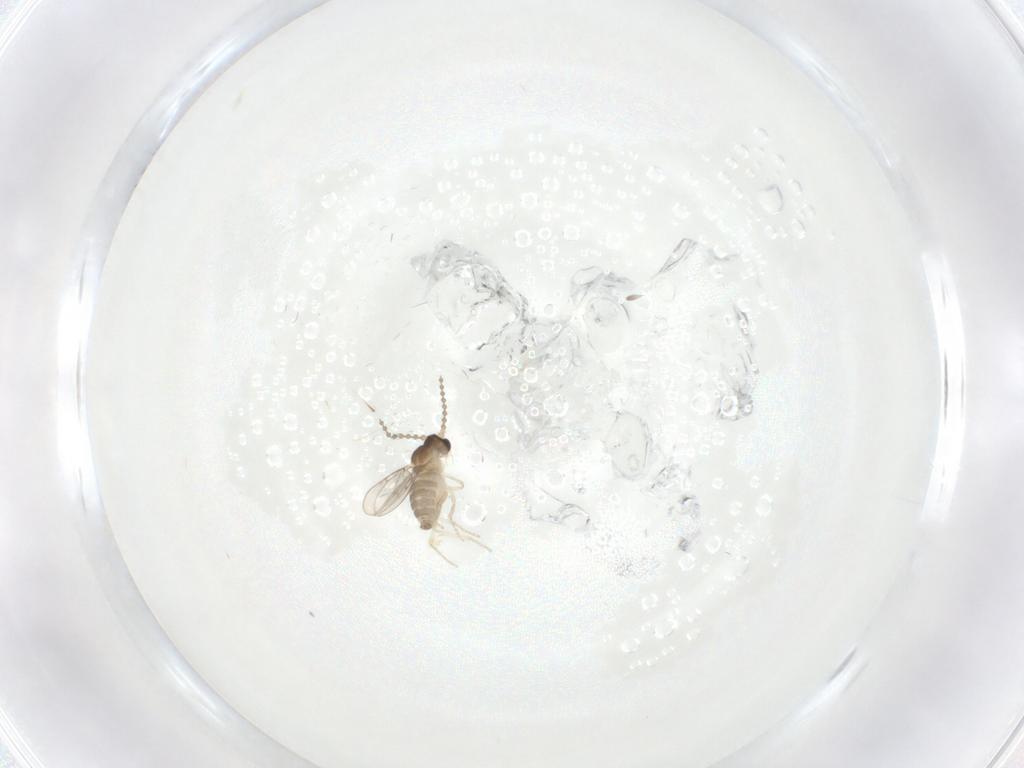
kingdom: Animalia
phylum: Arthropoda
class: Insecta
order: Diptera
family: Cecidomyiidae
